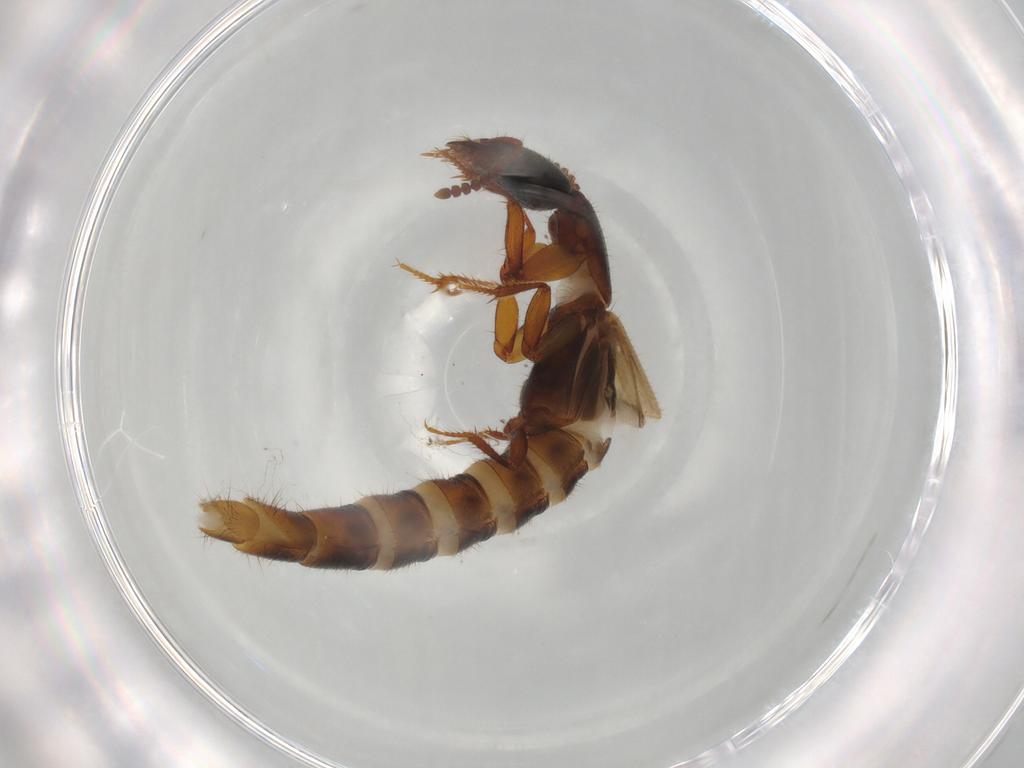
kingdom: Animalia
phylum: Arthropoda
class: Insecta
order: Coleoptera
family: Staphylinidae
